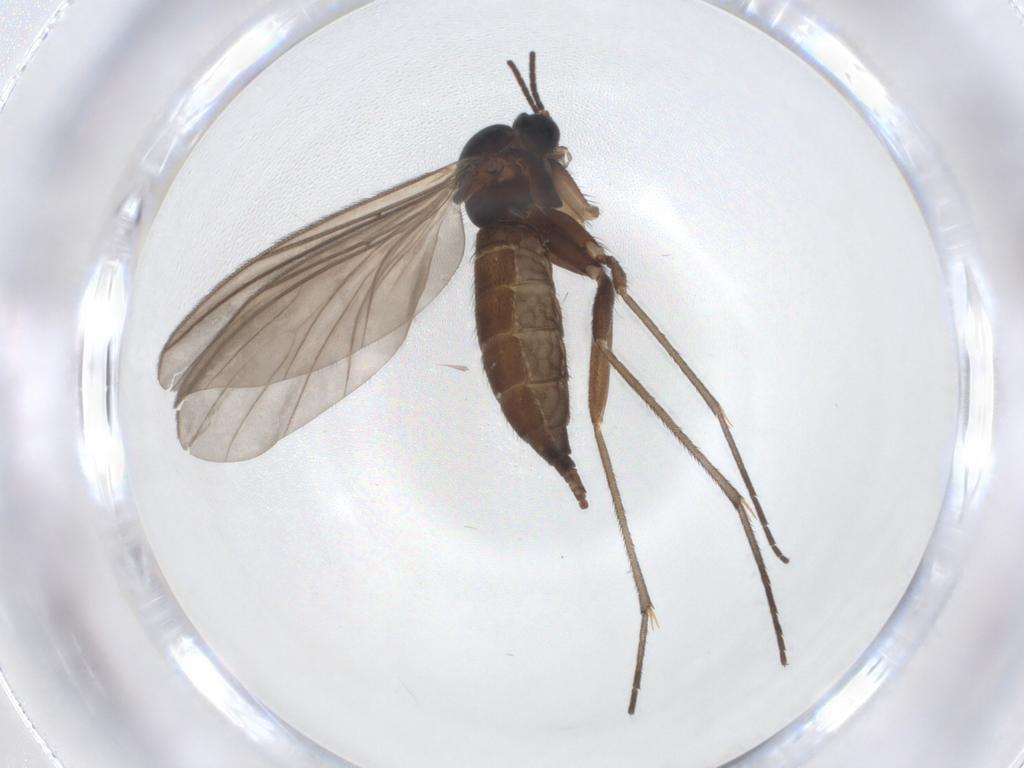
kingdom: Animalia
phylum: Arthropoda
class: Insecta
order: Diptera
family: Sciaridae
